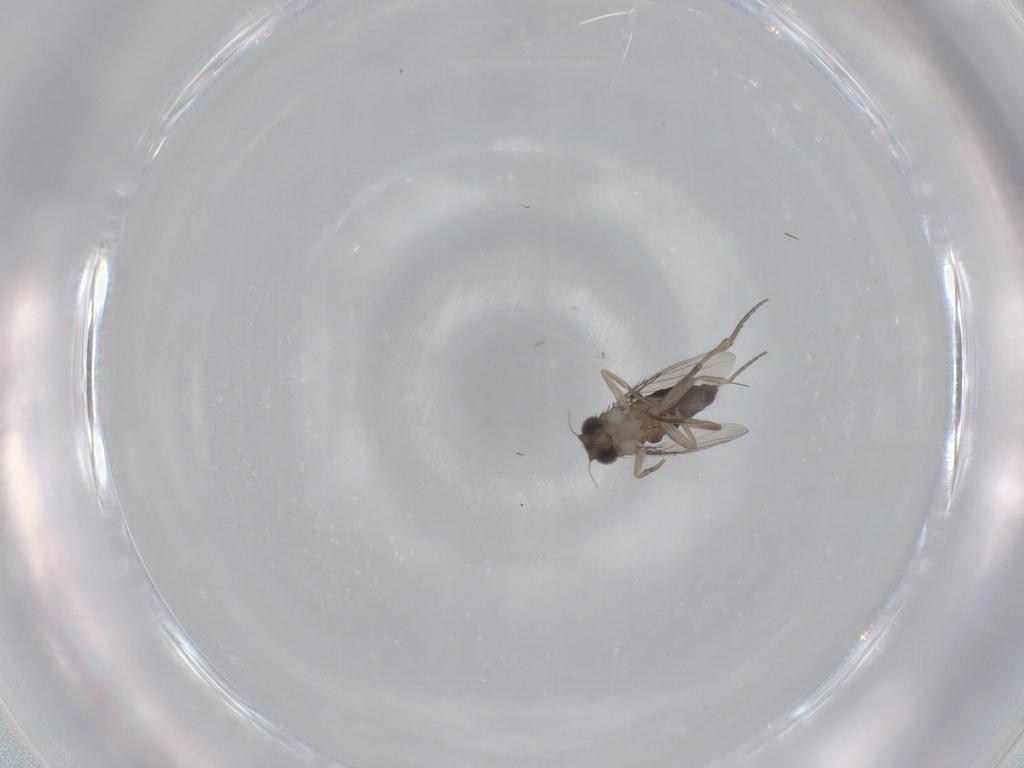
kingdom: Animalia
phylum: Arthropoda
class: Insecta
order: Diptera
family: Phoridae
